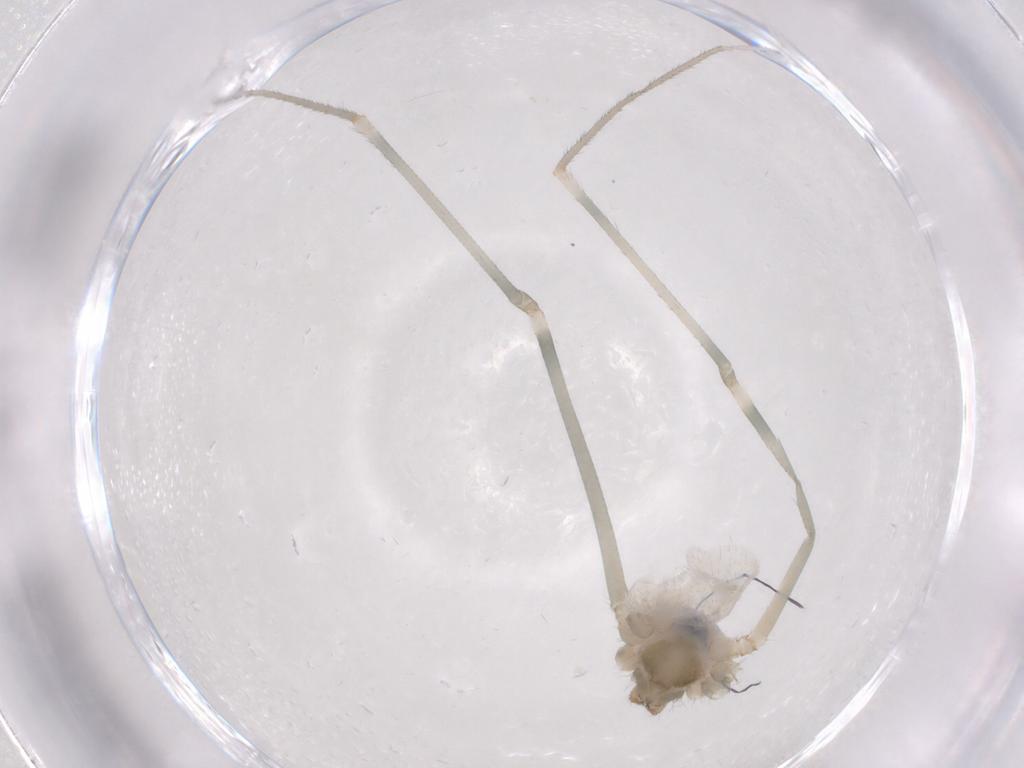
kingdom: Animalia
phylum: Arthropoda
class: Arachnida
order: Araneae
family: Pholcidae
